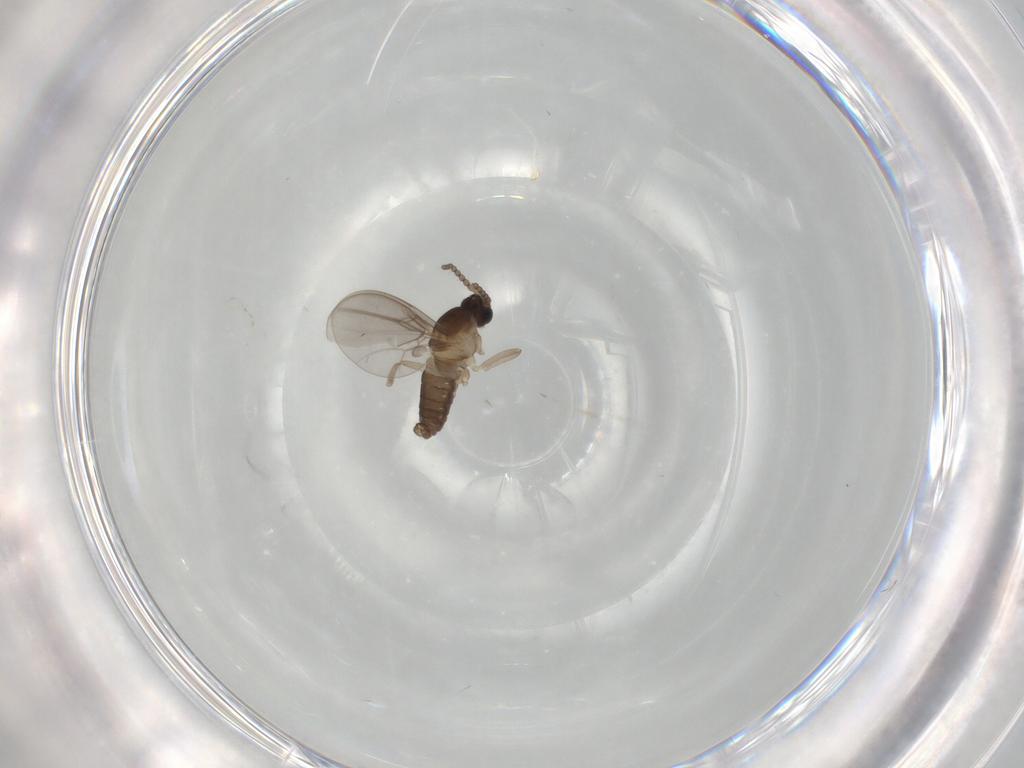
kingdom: Animalia
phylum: Arthropoda
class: Insecta
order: Diptera
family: Cecidomyiidae
